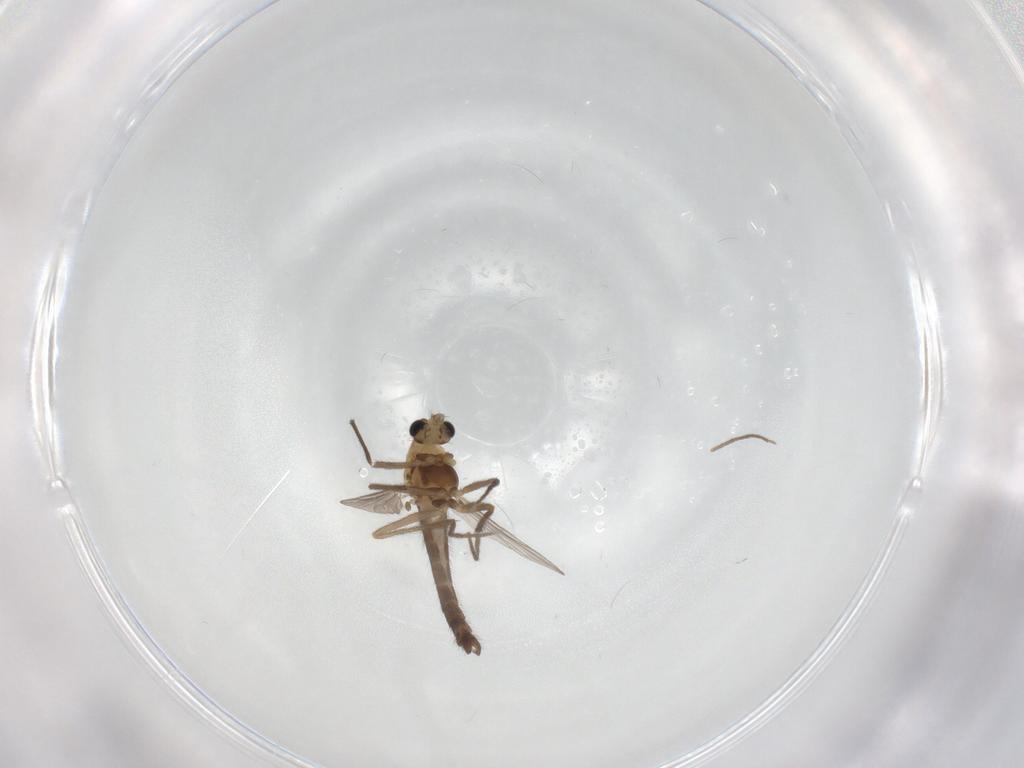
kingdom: Animalia
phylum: Arthropoda
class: Insecta
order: Diptera
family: Chironomidae
